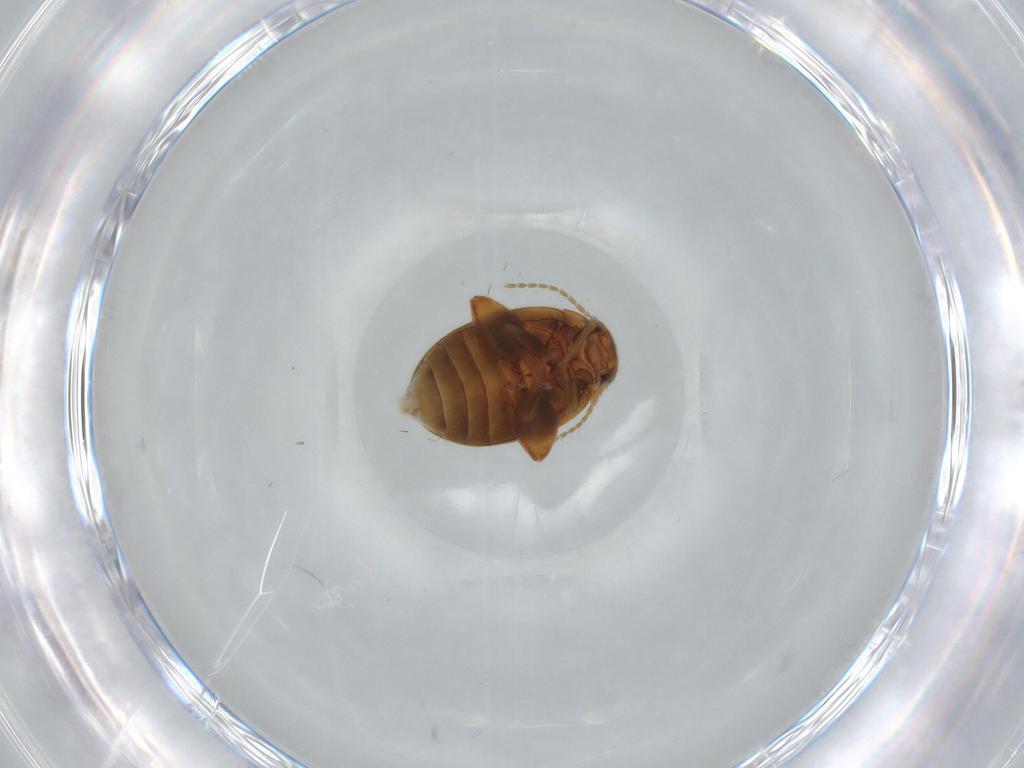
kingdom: Animalia
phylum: Arthropoda
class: Insecta
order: Coleoptera
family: Scirtidae
